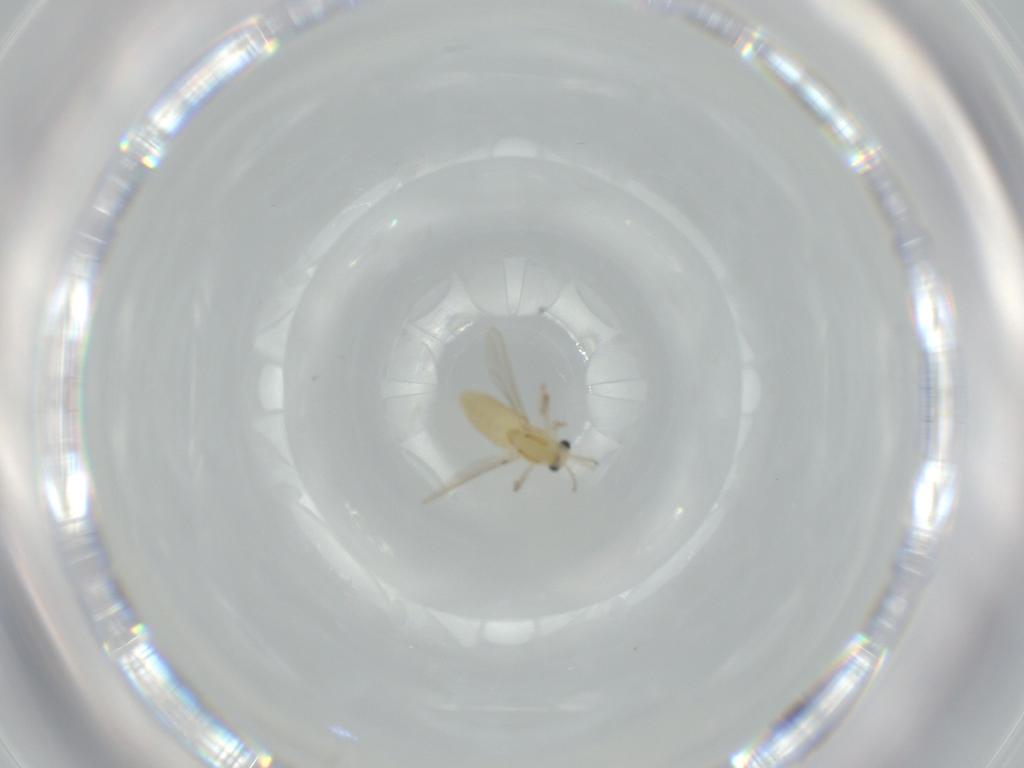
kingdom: Animalia
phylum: Arthropoda
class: Insecta
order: Diptera
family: Chironomidae
